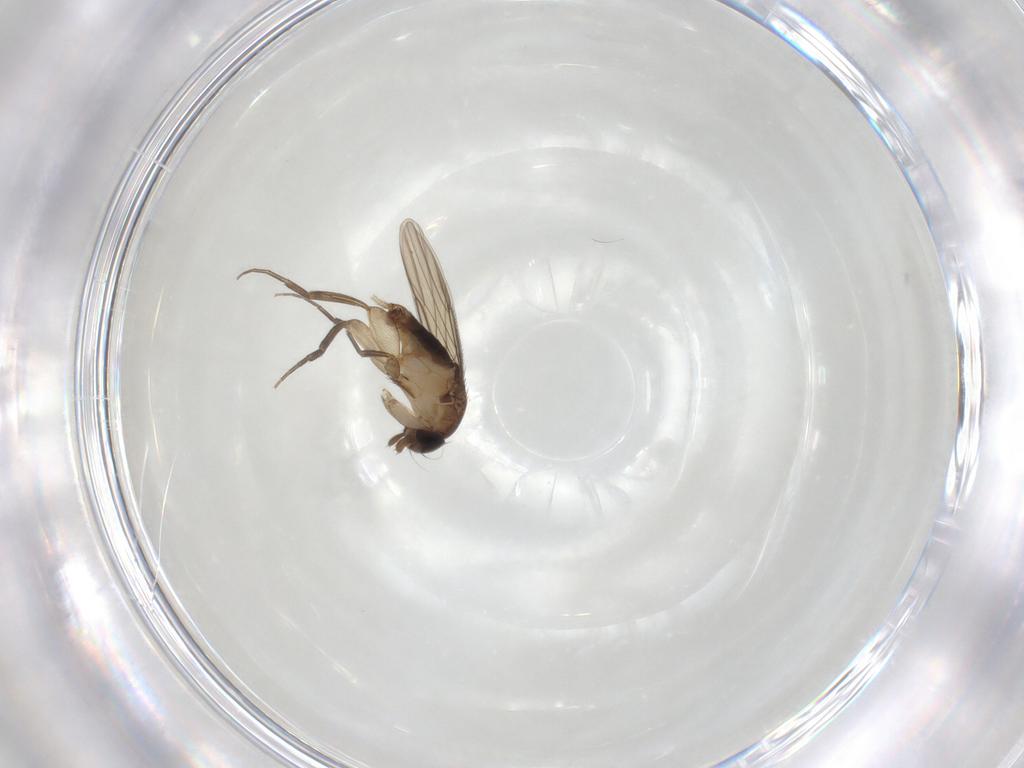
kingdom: Animalia
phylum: Arthropoda
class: Insecta
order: Diptera
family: Phoridae
